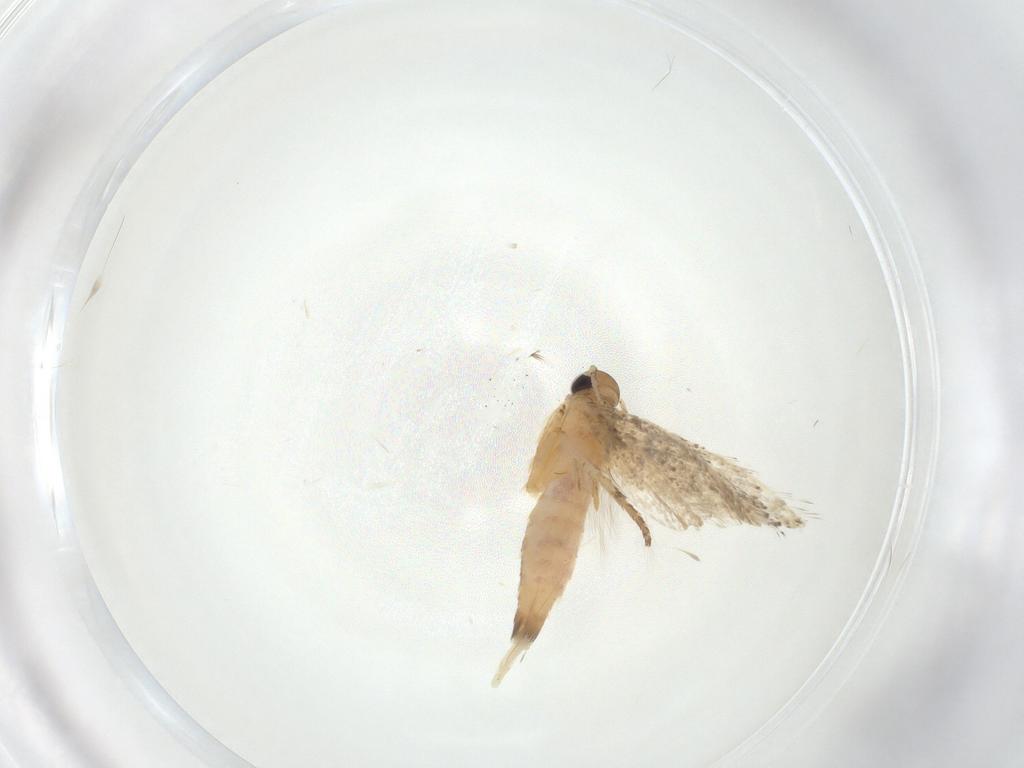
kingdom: Animalia
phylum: Arthropoda
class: Insecta
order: Lepidoptera
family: Gelechiidae
